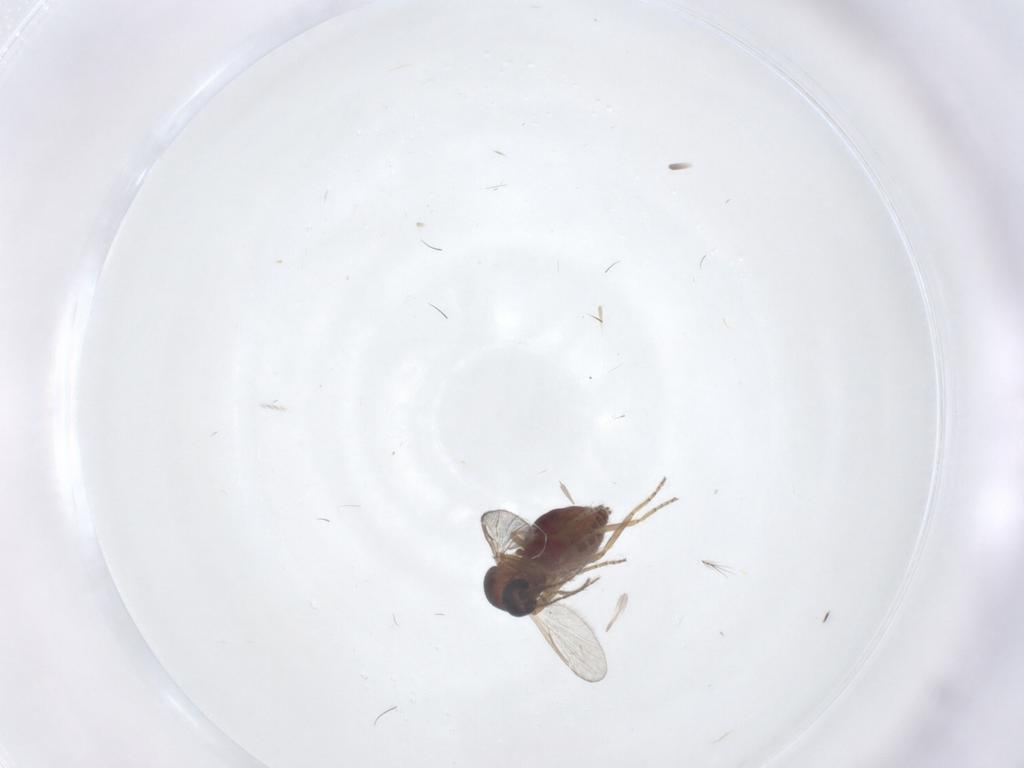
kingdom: Animalia
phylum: Arthropoda
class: Insecta
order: Diptera
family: Ceratopogonidae
